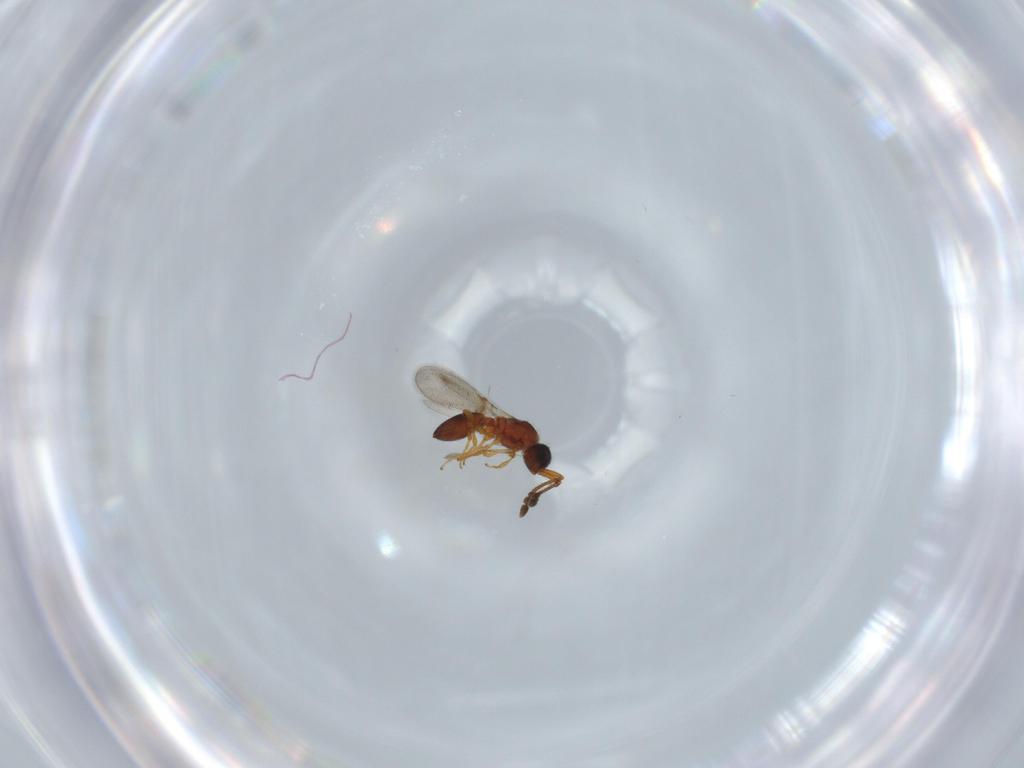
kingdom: Animalia
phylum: Arthropoda
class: Insecta
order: Hymenoptera
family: Diapriidae
